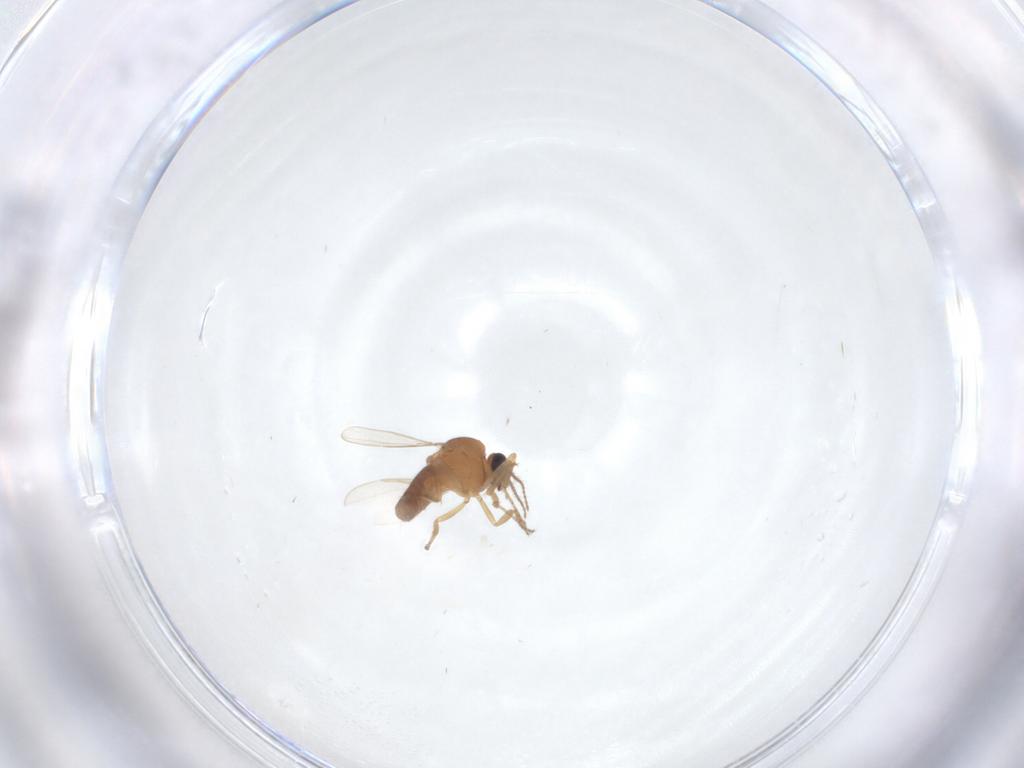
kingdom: Animalia
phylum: Arthropoda
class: Insecta
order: Diptera
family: Ceratopogonidae
